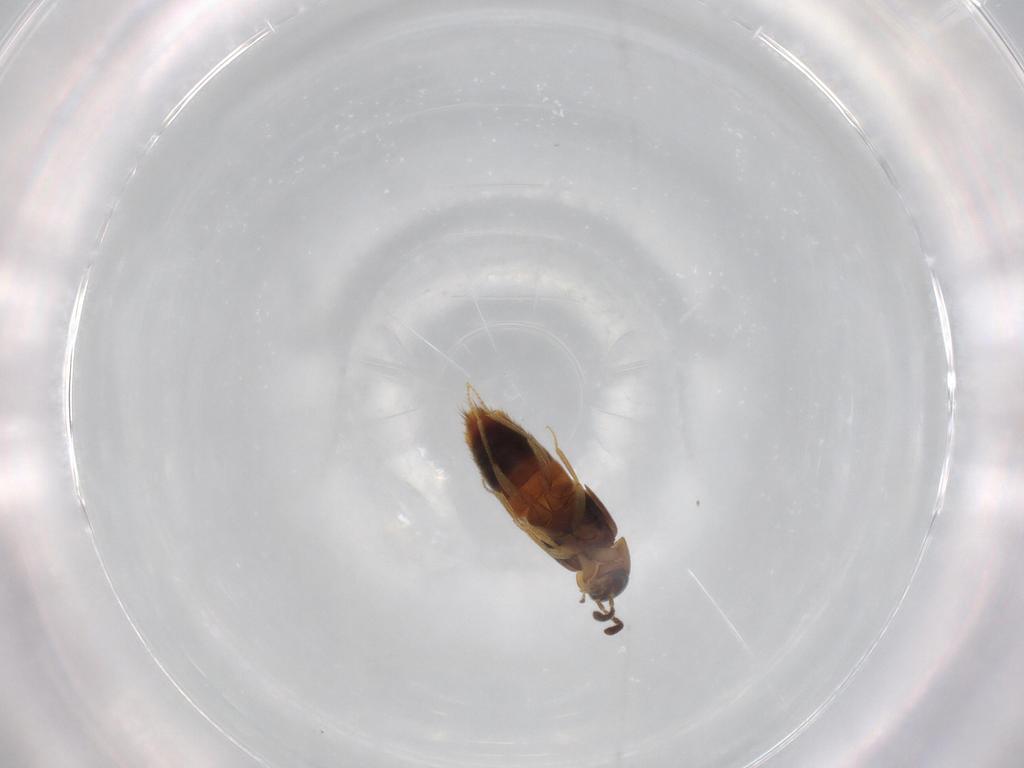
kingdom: Animalia
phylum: Arthropoda
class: Insecta
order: Coleoptera
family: Staphylinidae
